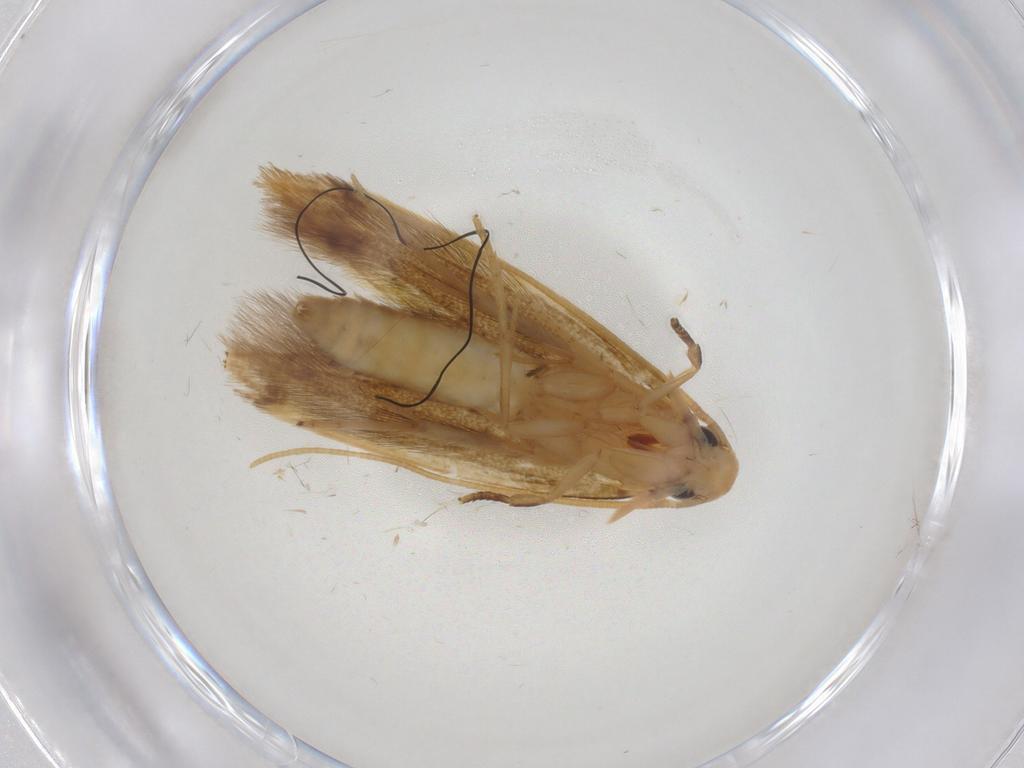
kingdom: Animalia
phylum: Arthropoda
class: Insecta
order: Lepidoptera
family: Tineidae
